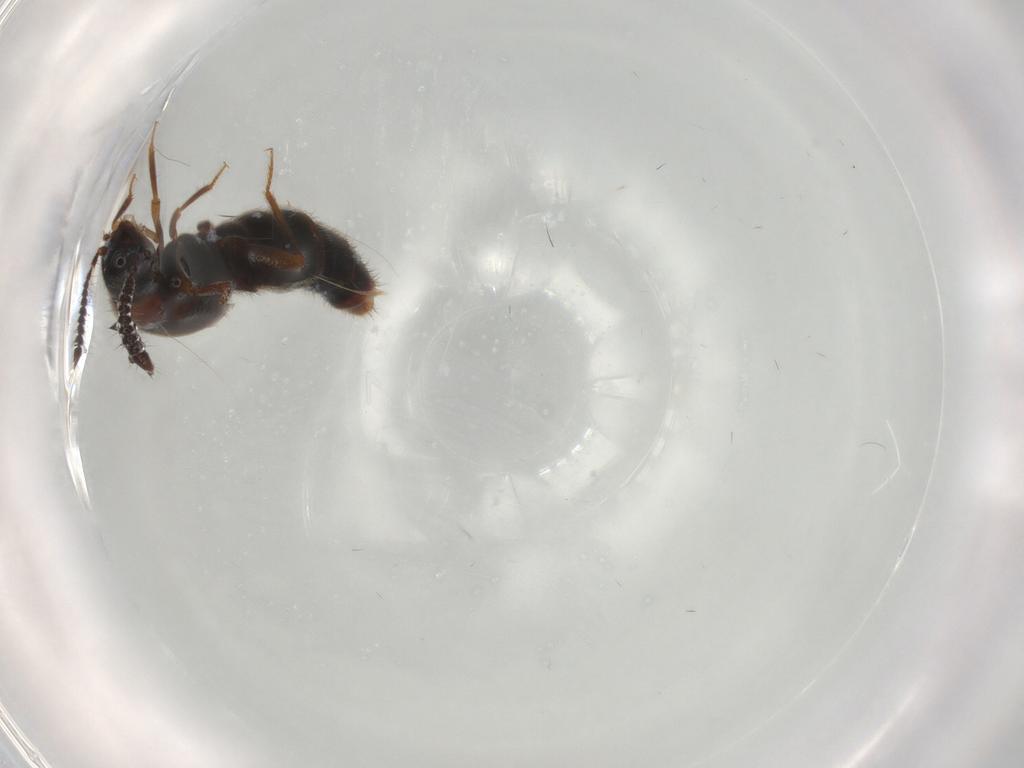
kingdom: Animalia
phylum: Arthropoda
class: Insecta
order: Coleoptera
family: Staphylinidae
